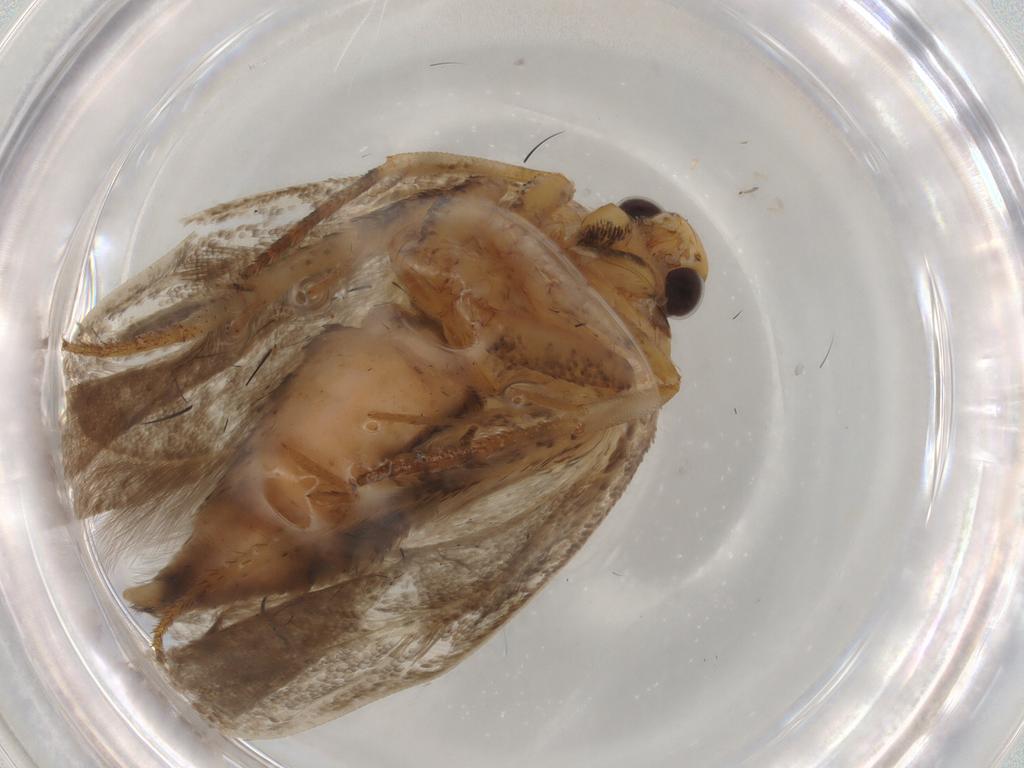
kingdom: Animalia
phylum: Arthropoda
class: Insecta
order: Lepidoptera
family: Gelechiidae
